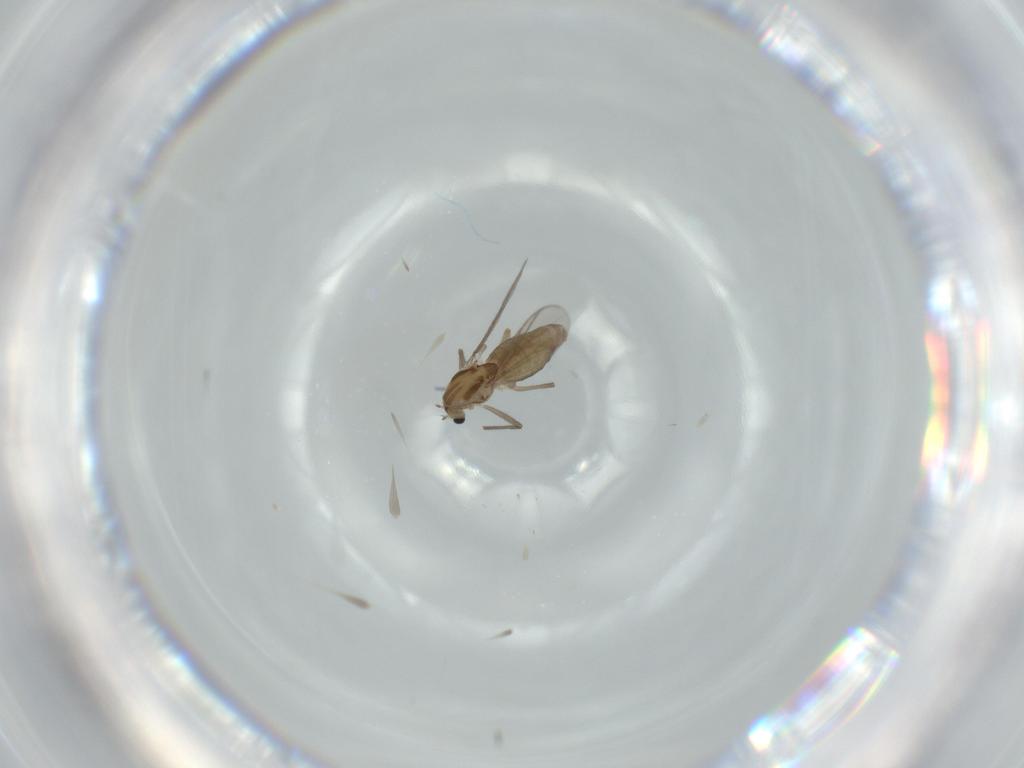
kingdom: Animalia
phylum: Arthropoda
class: Insecta
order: Diptera
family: Chironomidae
